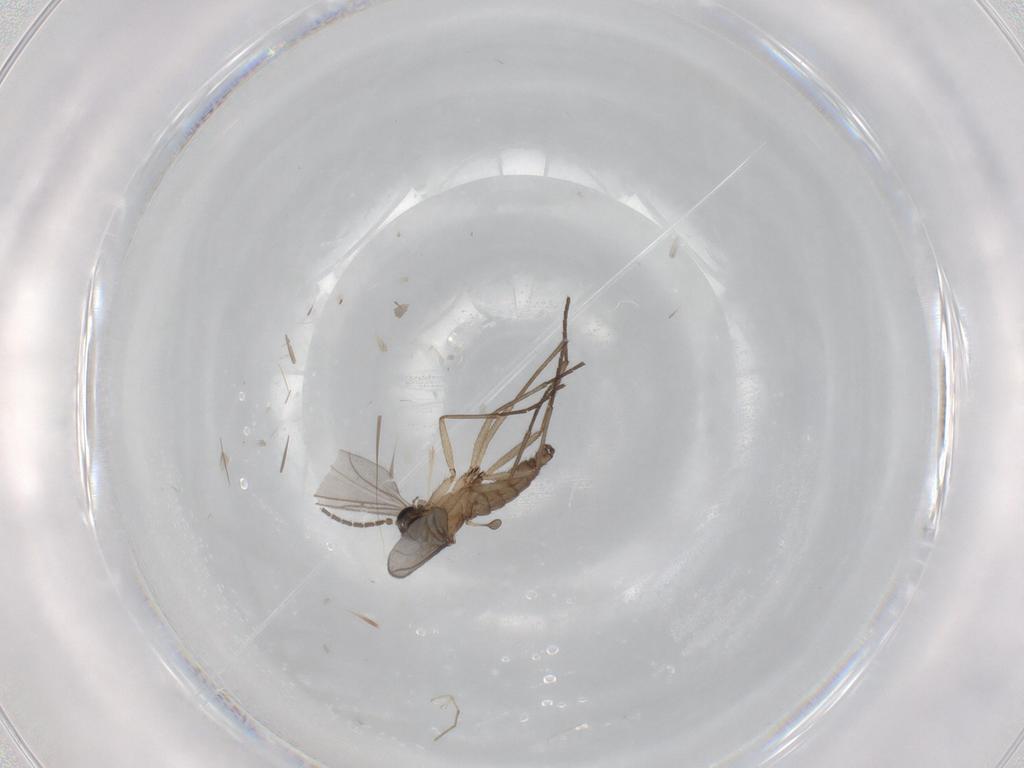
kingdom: Animalia
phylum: Arthropoda
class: Insecta
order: Diptera
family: Sciaridae
